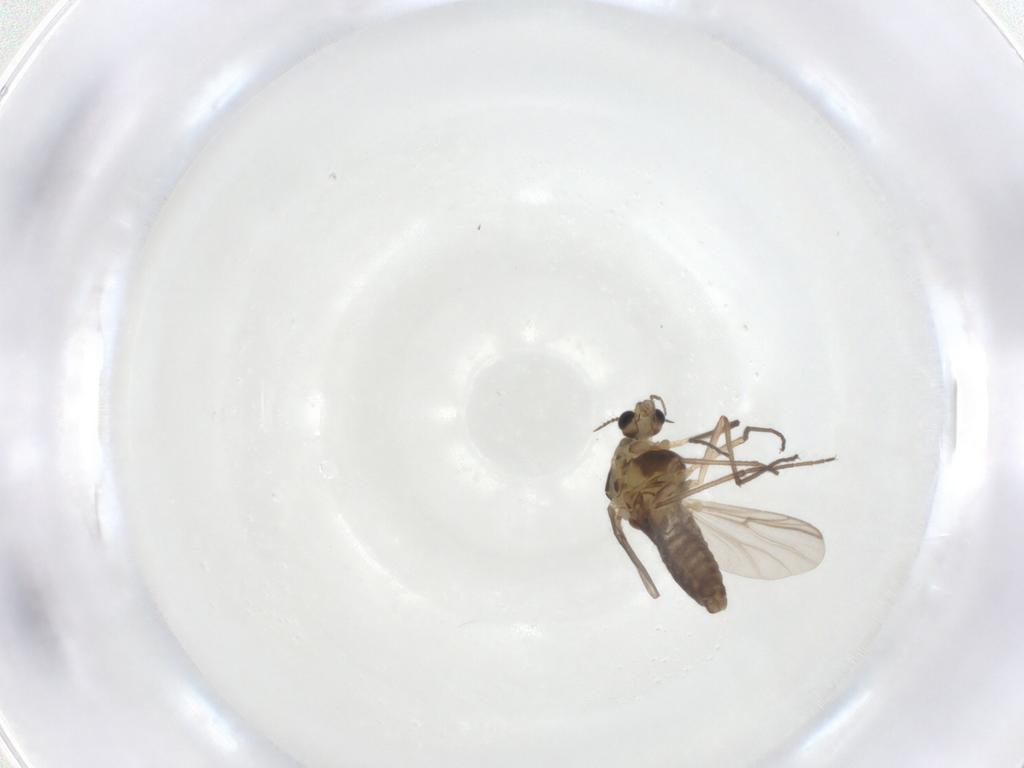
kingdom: Animalia
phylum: Arthropoda
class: Insecta
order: Diptera
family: Chironomidae
